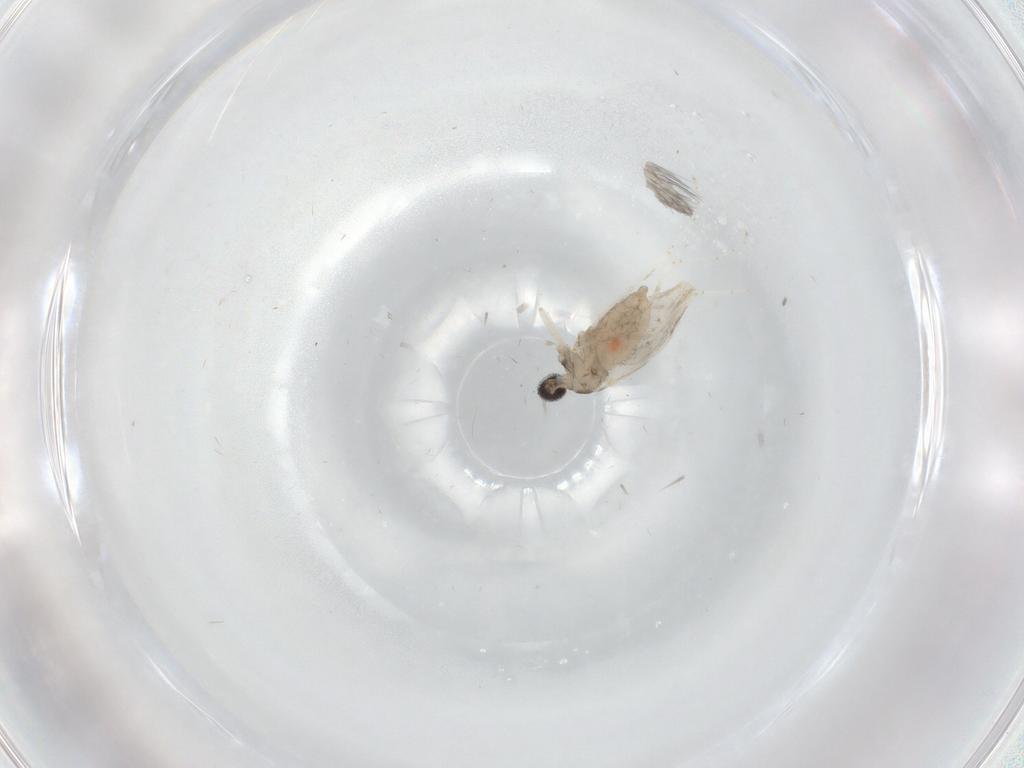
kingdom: Animalia
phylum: Arthropoda
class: Insecta
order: Diptera
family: Cecidomyiidae
